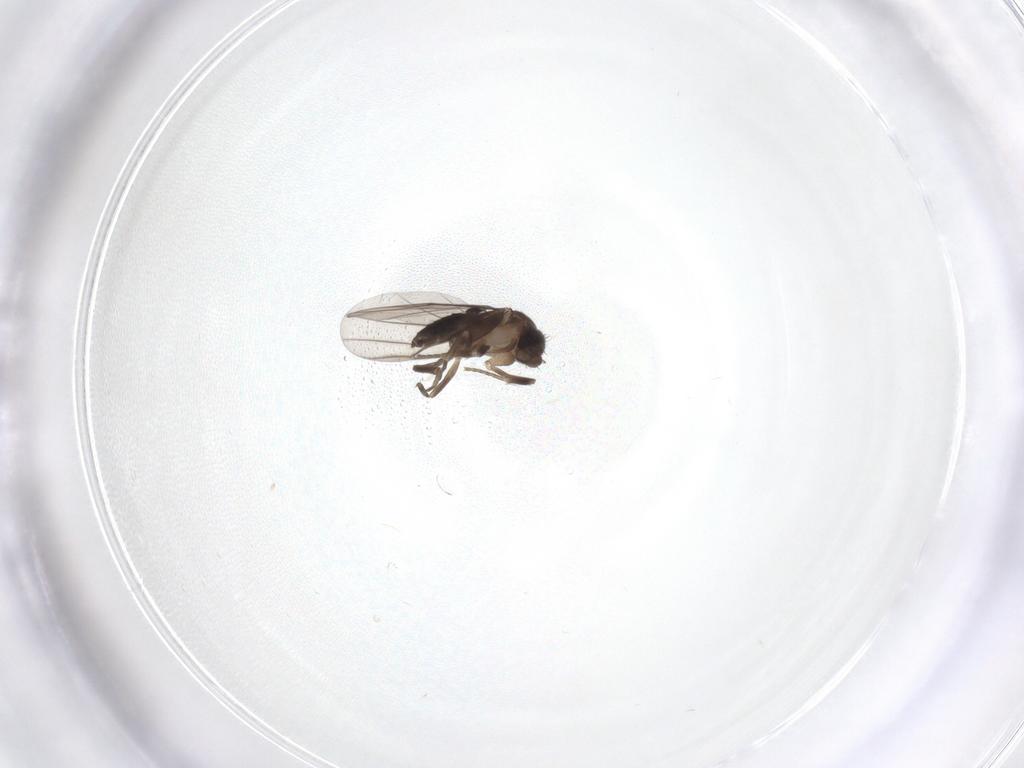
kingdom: Animalia
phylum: Arthropoda
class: Insecta
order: Diptera
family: Phoridae
